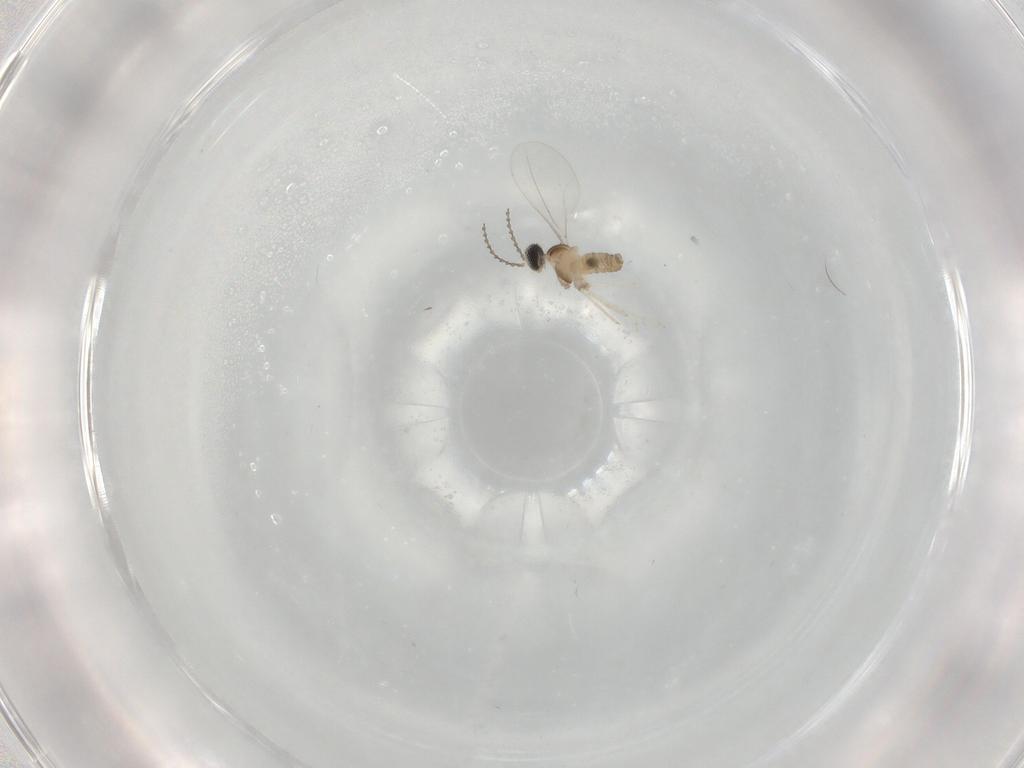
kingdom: Animalia
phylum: Arthropoda
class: Insecta
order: Diptera
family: Cecidomyiidae
